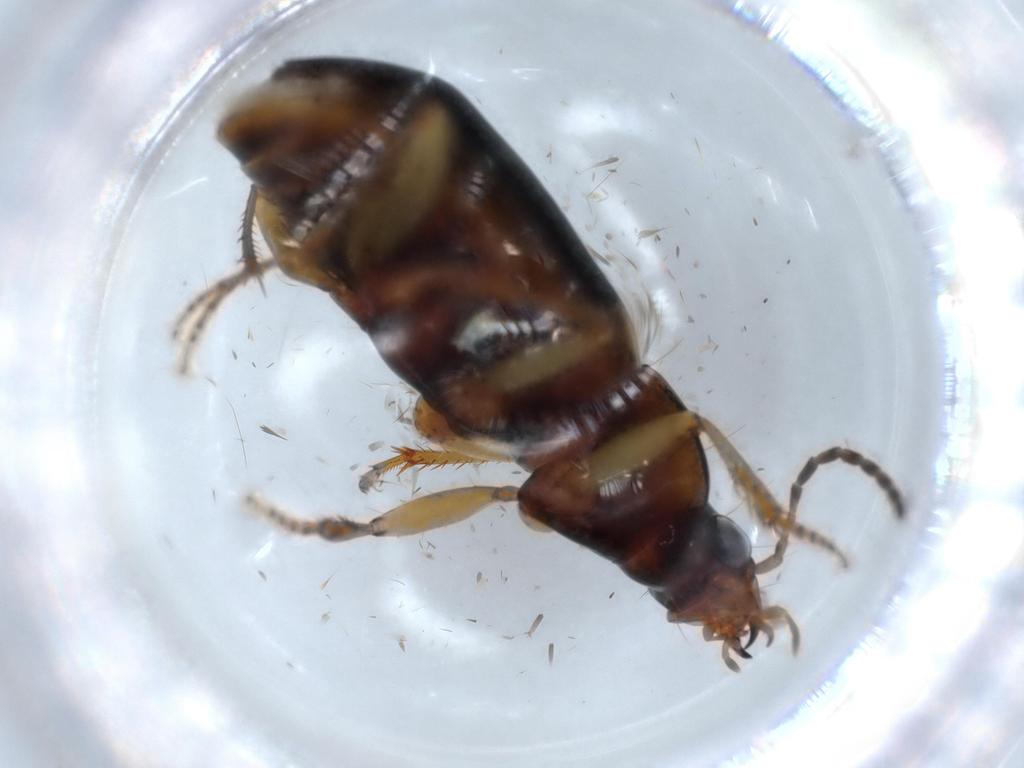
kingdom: Animalia
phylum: Arthropoda
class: Insecta
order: Coleoptera
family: Carabidae
